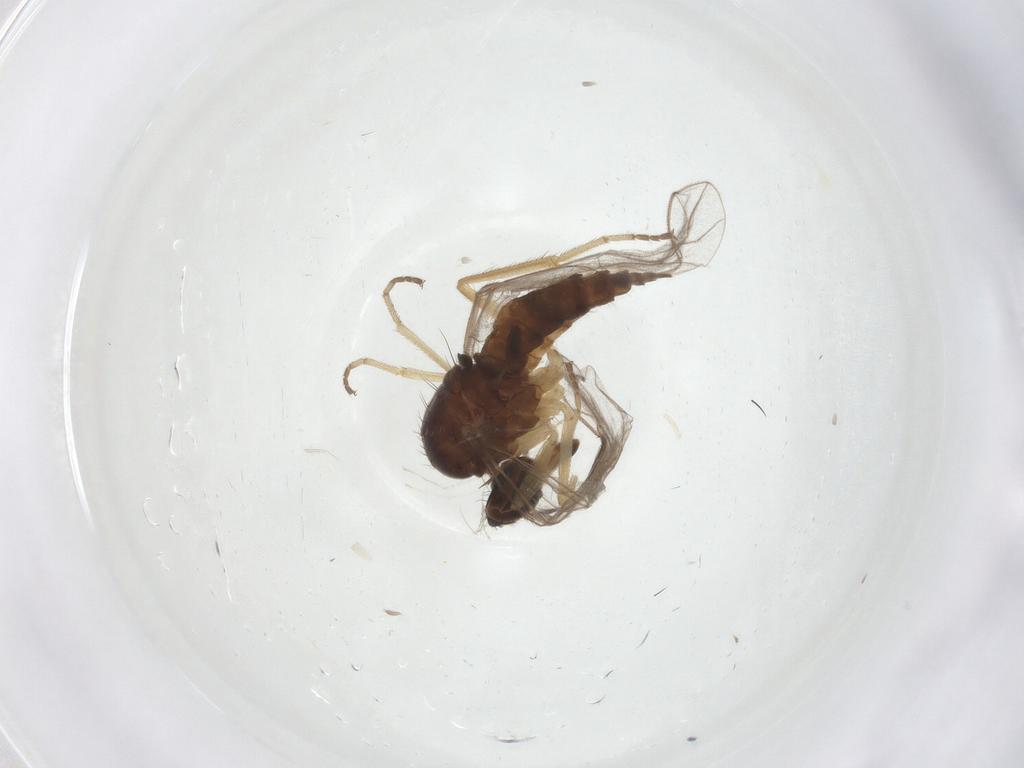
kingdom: Animalia
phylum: Arthropoda
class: Insecta
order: Diptera
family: Empididae
